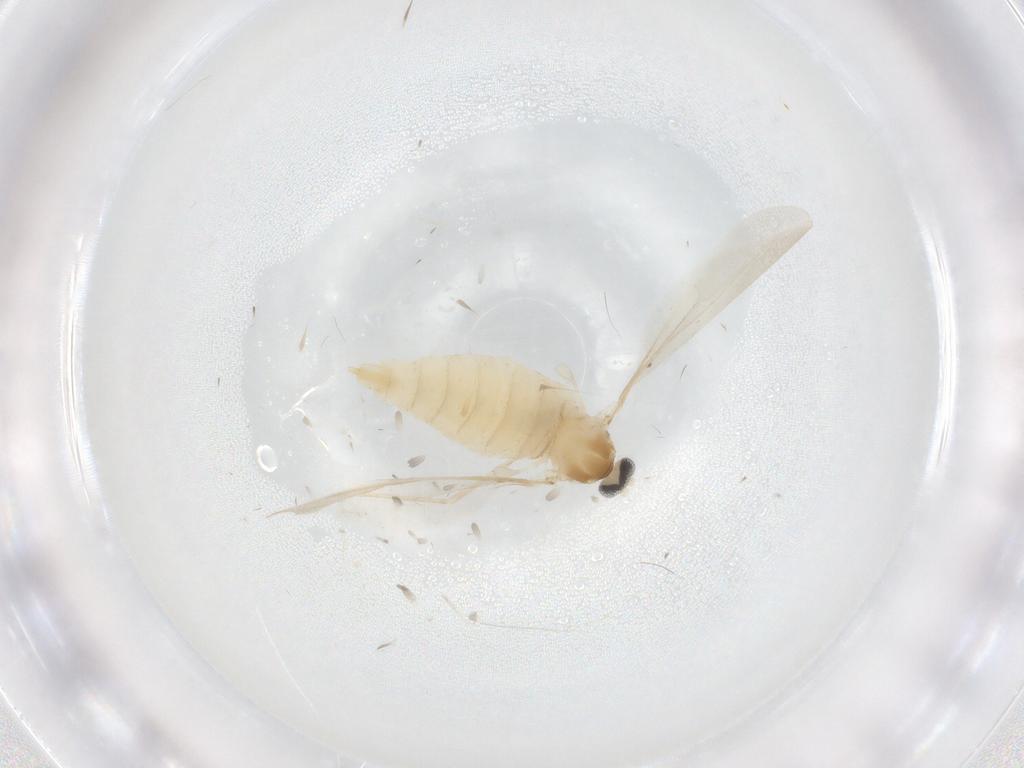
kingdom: Animalia
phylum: Arthropoda
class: Insecta
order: Diptera
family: Cecidomyiidae
